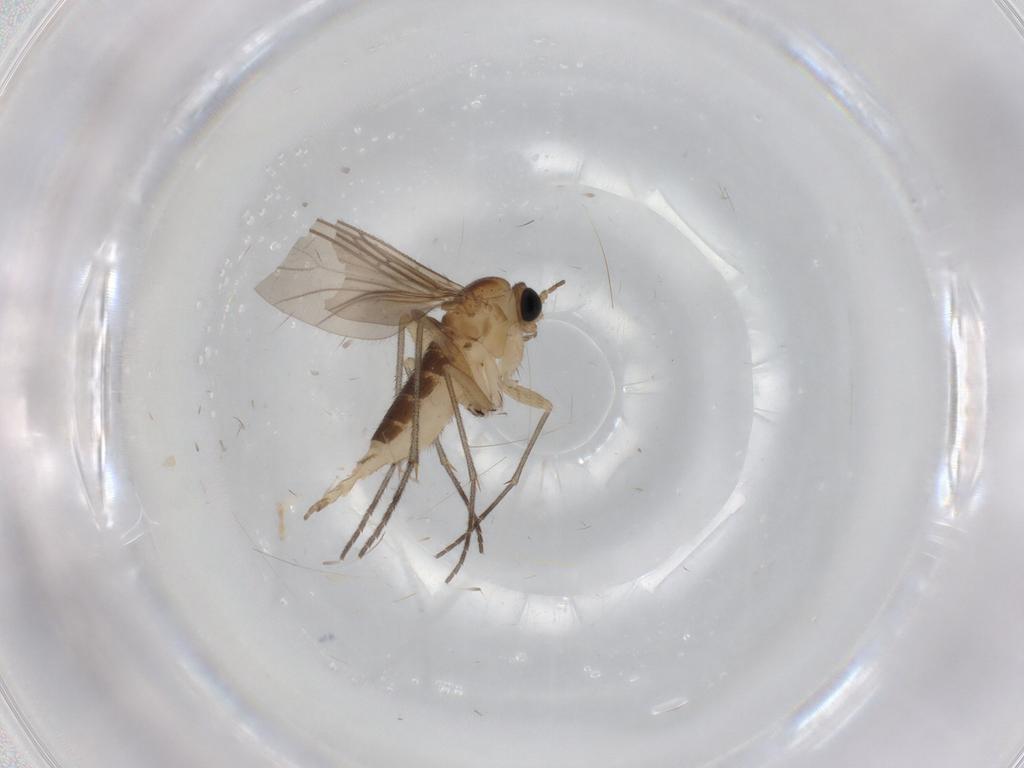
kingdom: Animalia
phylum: Arthropoda
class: Insecta
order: Diptera
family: Sciaridae
